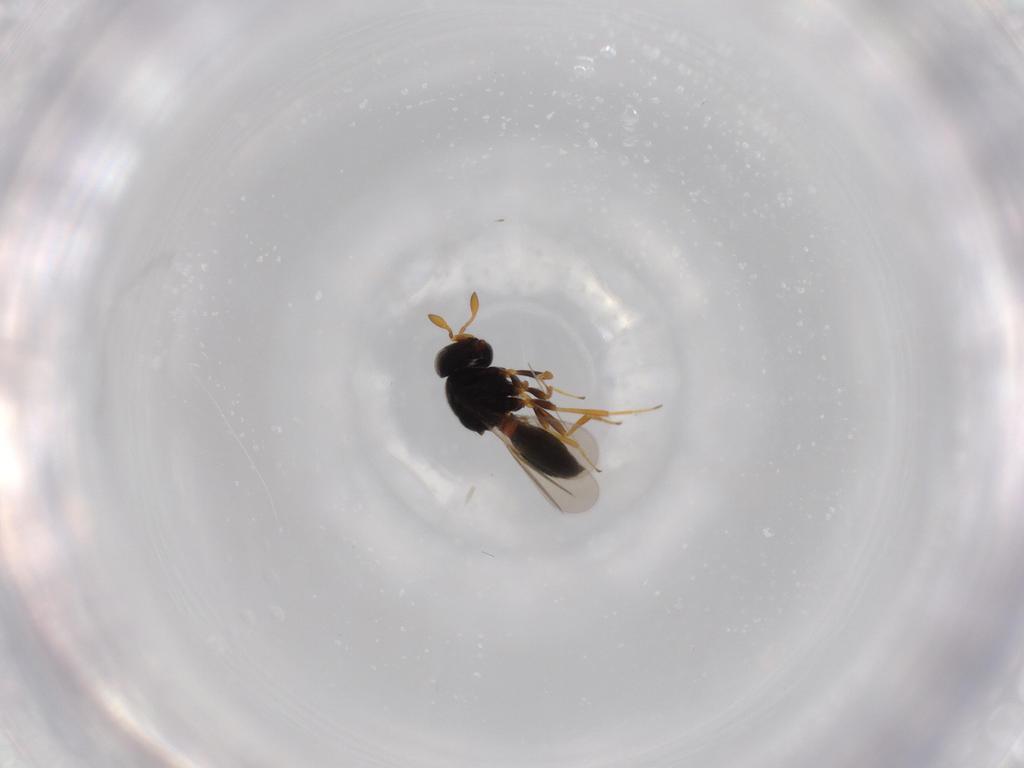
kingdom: Animalia
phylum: Arthropoda
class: Insecta
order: Hymenoptera
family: Scelionidae
